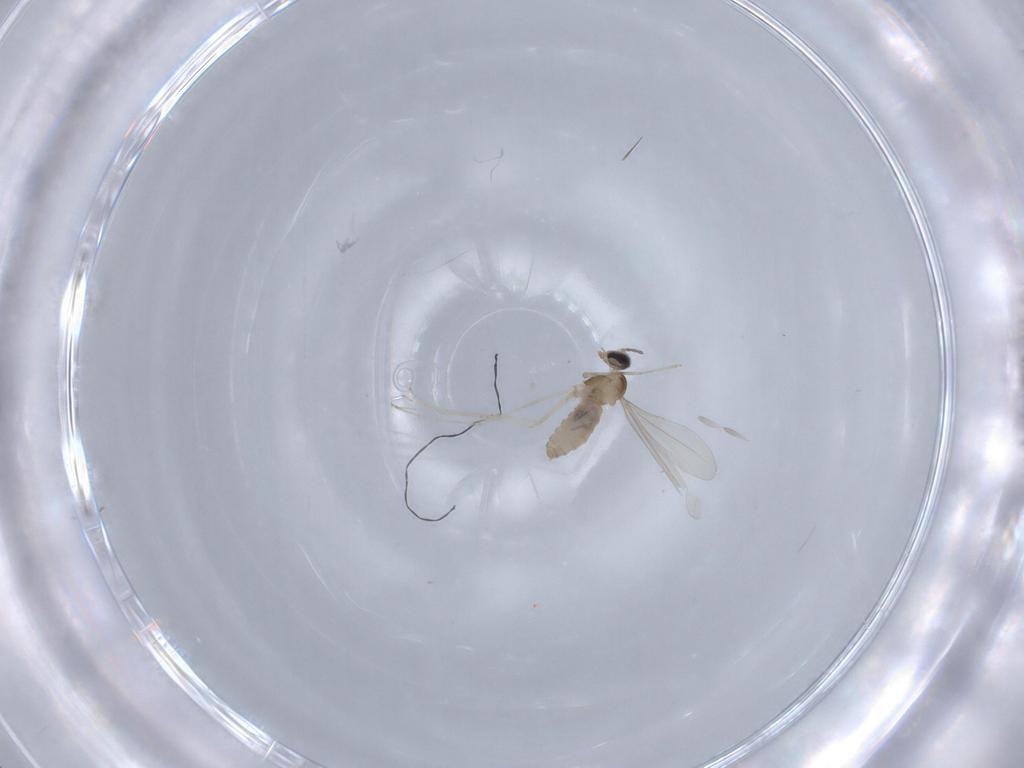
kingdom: Animalia
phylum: Arthropoda
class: Insecta
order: Diptera
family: Cecidomyiidae
